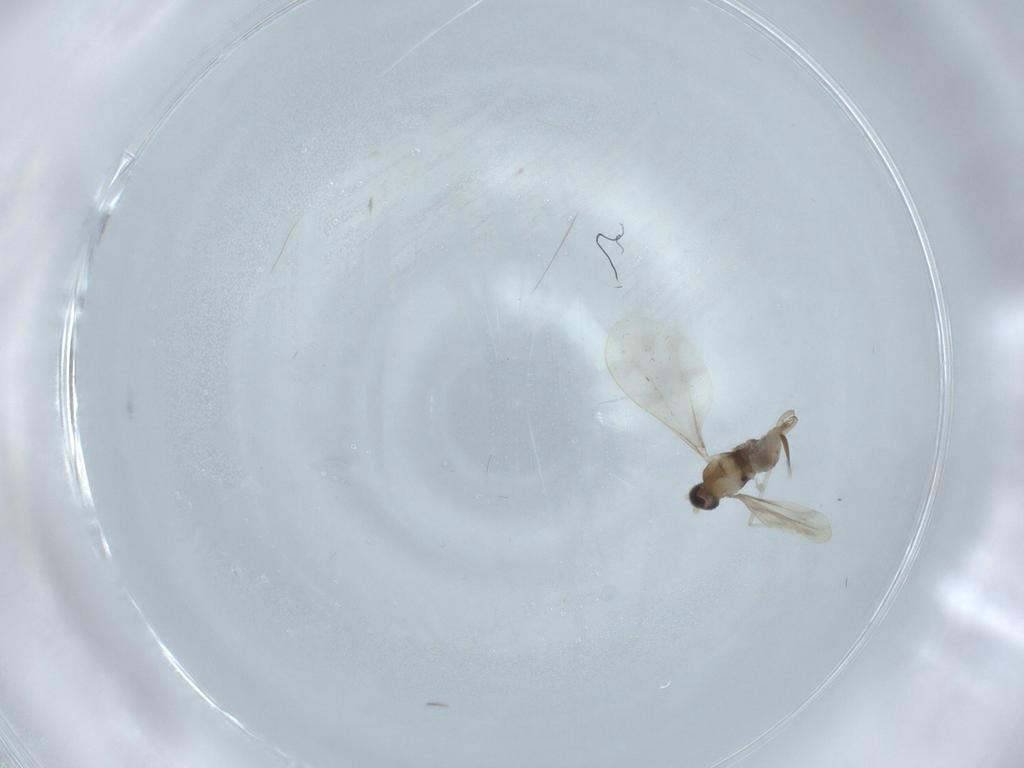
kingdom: Animalia
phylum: Arthropoda
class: Insecta
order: Diptera
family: Cecidomyiidae
